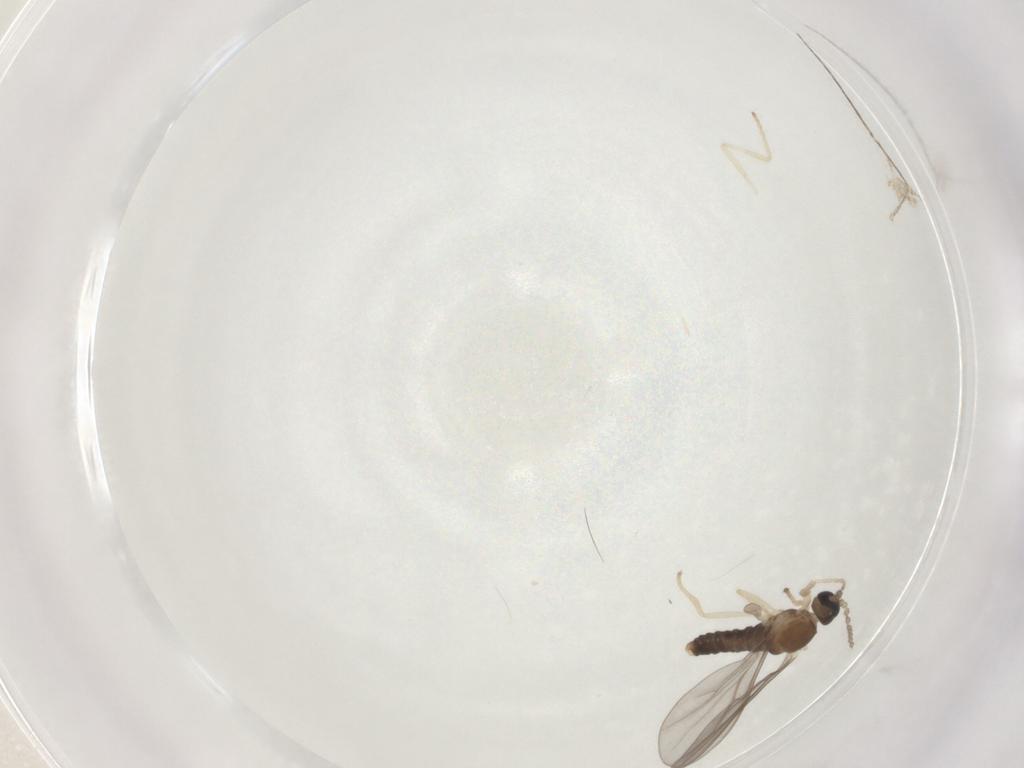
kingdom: Animalia
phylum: Arthropoda
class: Insecta
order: Diptera
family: Cecidomyiidae
